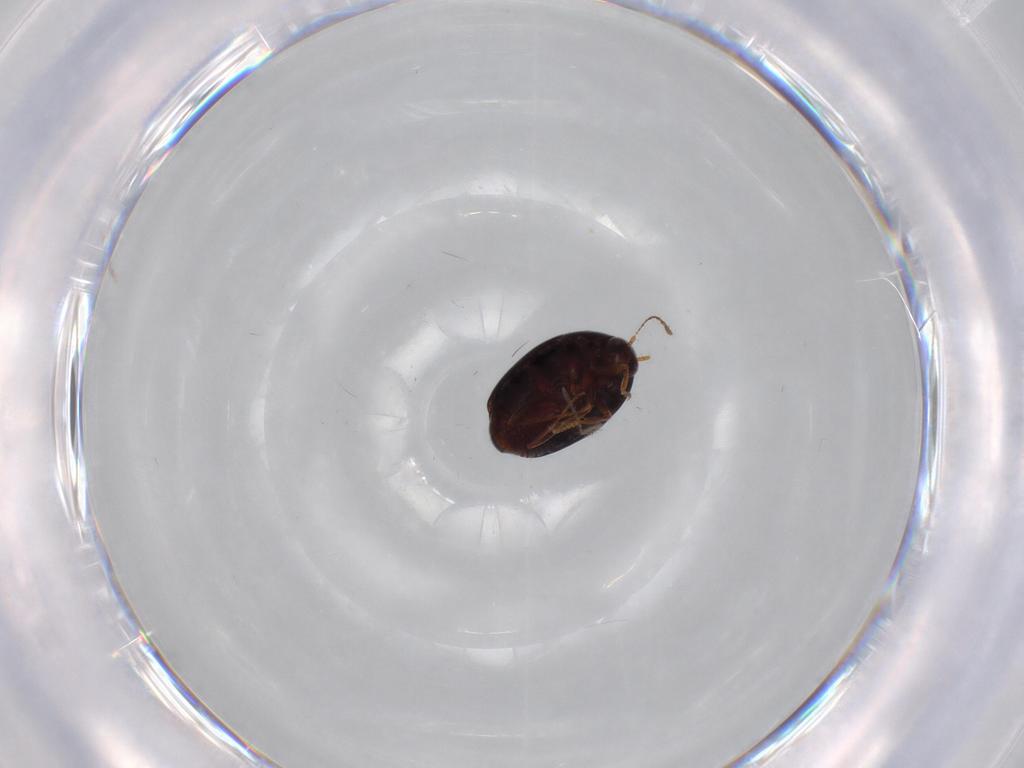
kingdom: Animalia
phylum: Arthropoda
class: Insecta
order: Coleoptera
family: Staphylinidae
